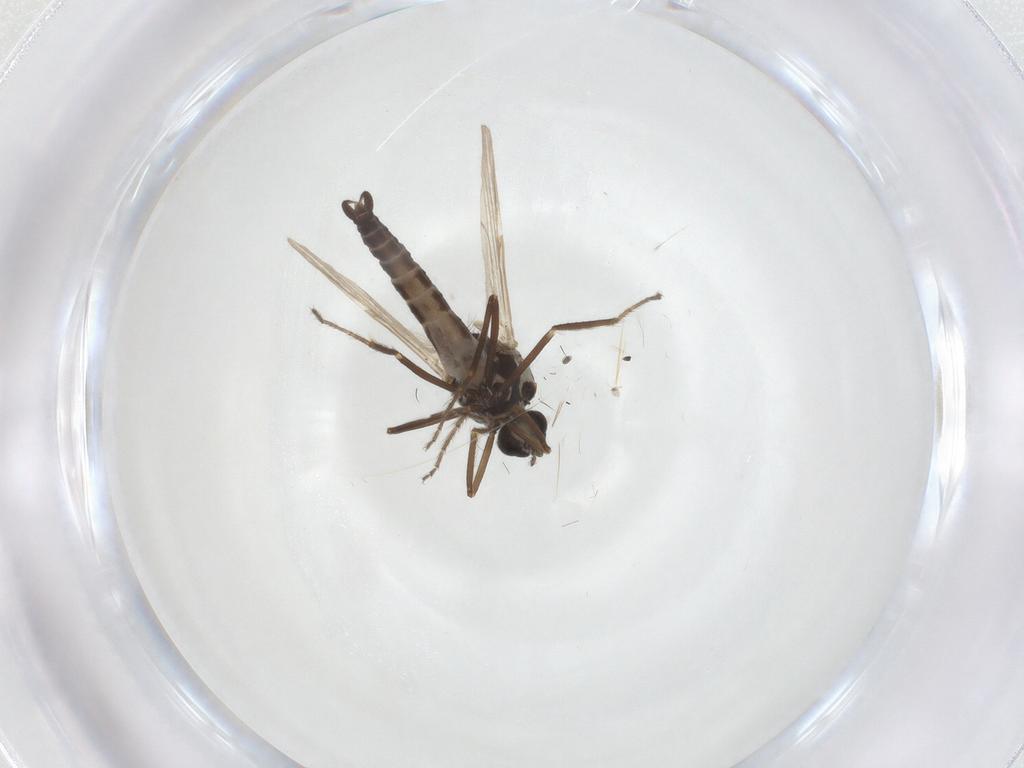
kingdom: Animalia
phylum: Arthropoda
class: Insecta
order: Diptera
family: Ceratopogonidae
